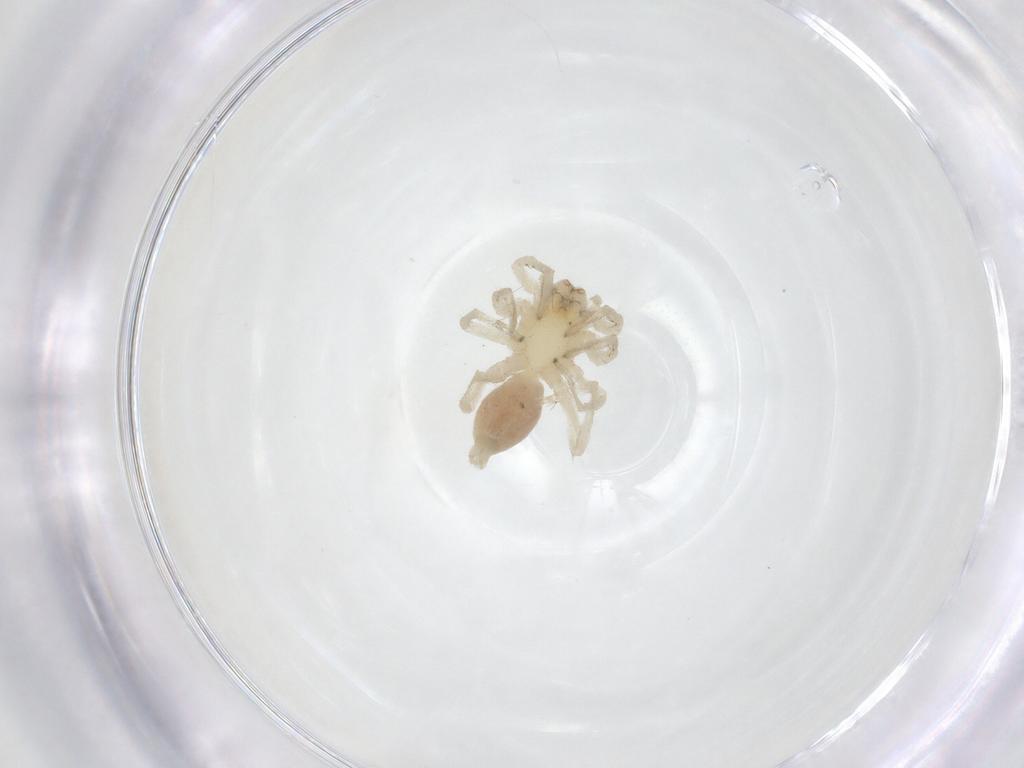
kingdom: Animalia
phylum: Arthropoda
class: Arachnida
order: Araneae
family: Clubionidae
